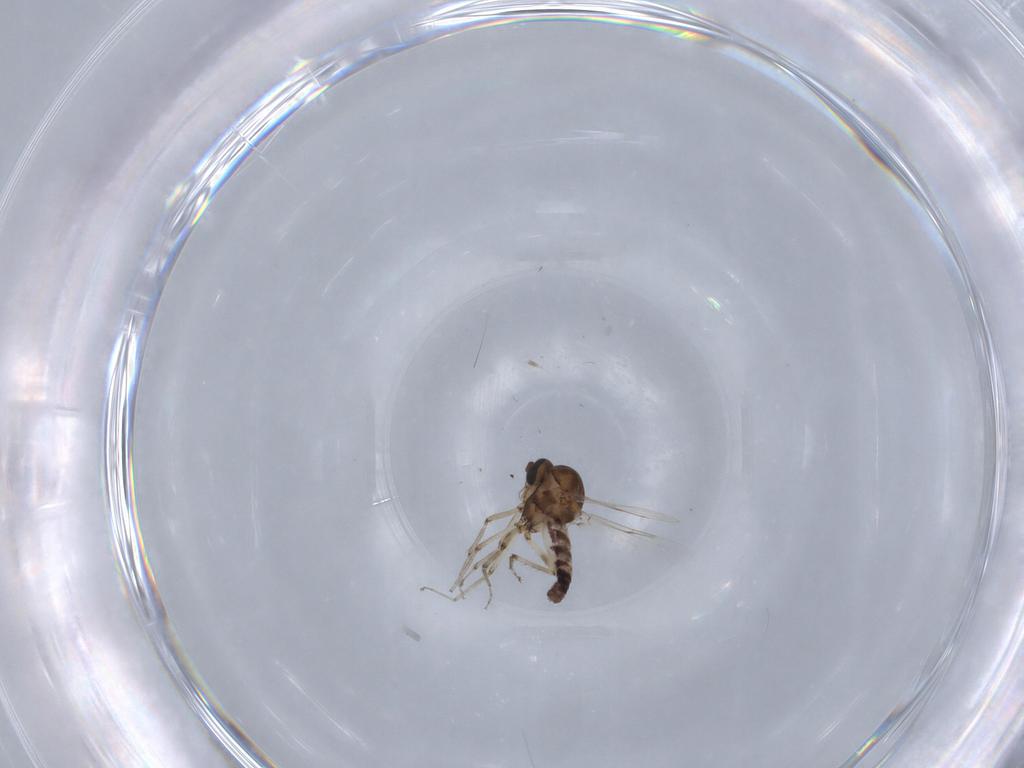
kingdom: Animalia
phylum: Arthropoda
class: Insecta
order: Diptera
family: Ceratopogonidae
